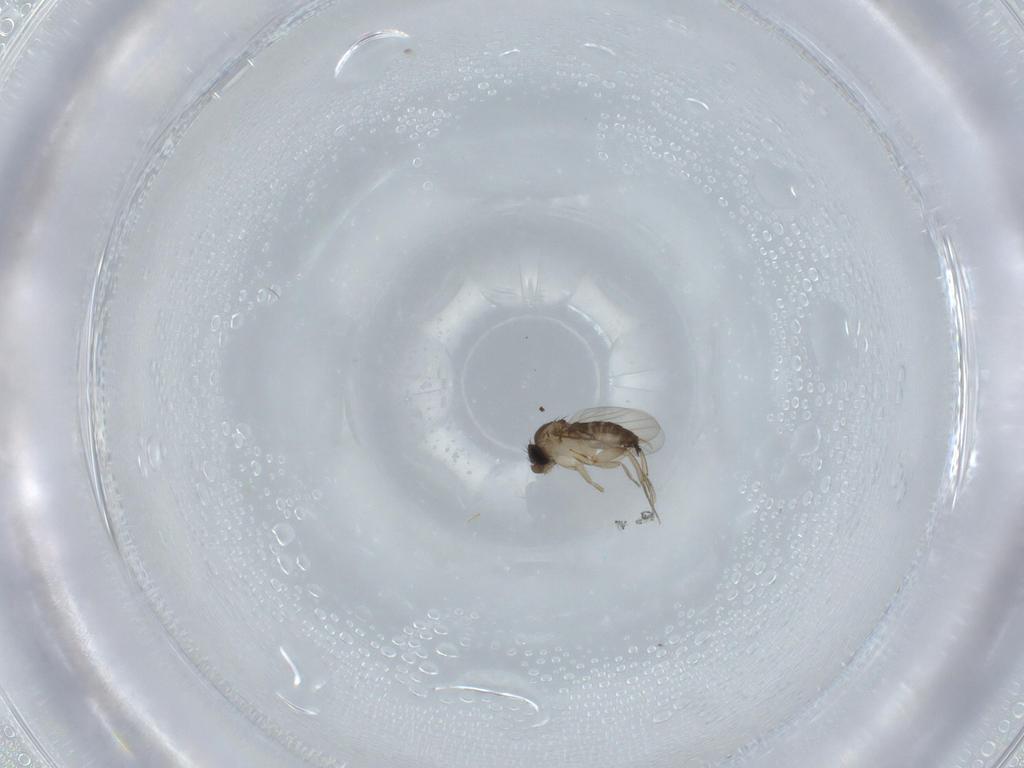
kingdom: Animalia
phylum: Arthropoda
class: Insecta
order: Diptera
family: Phoridae
